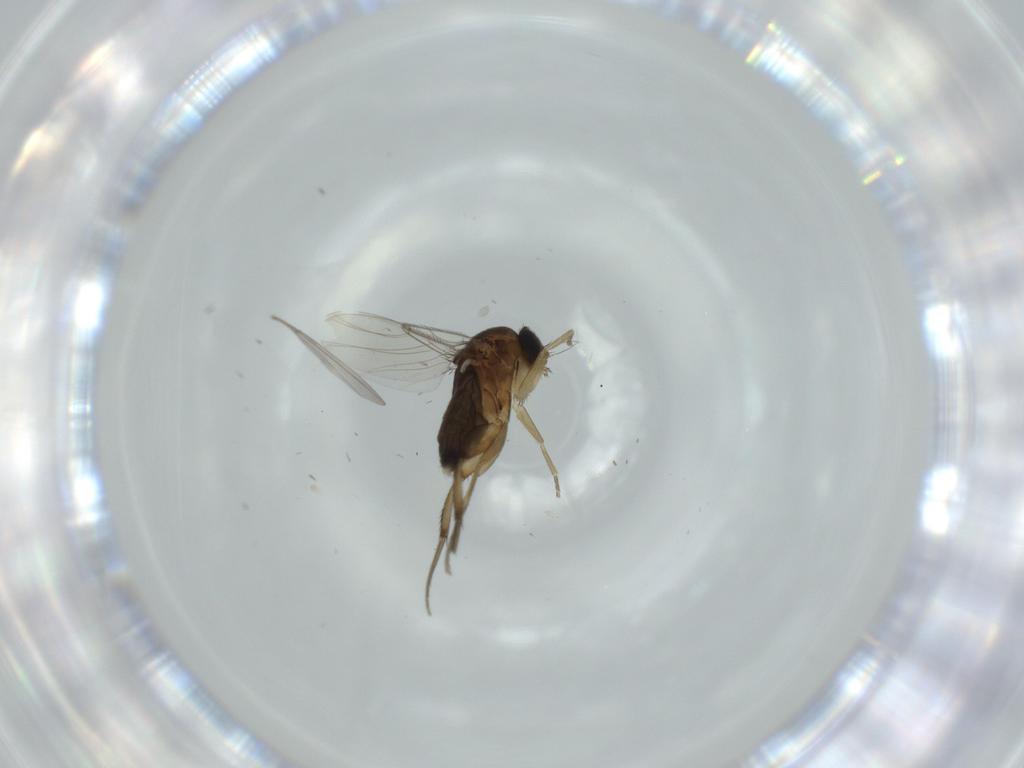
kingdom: Animalia
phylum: Arthropoda
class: Insecta
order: Diptera
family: Phoridae
